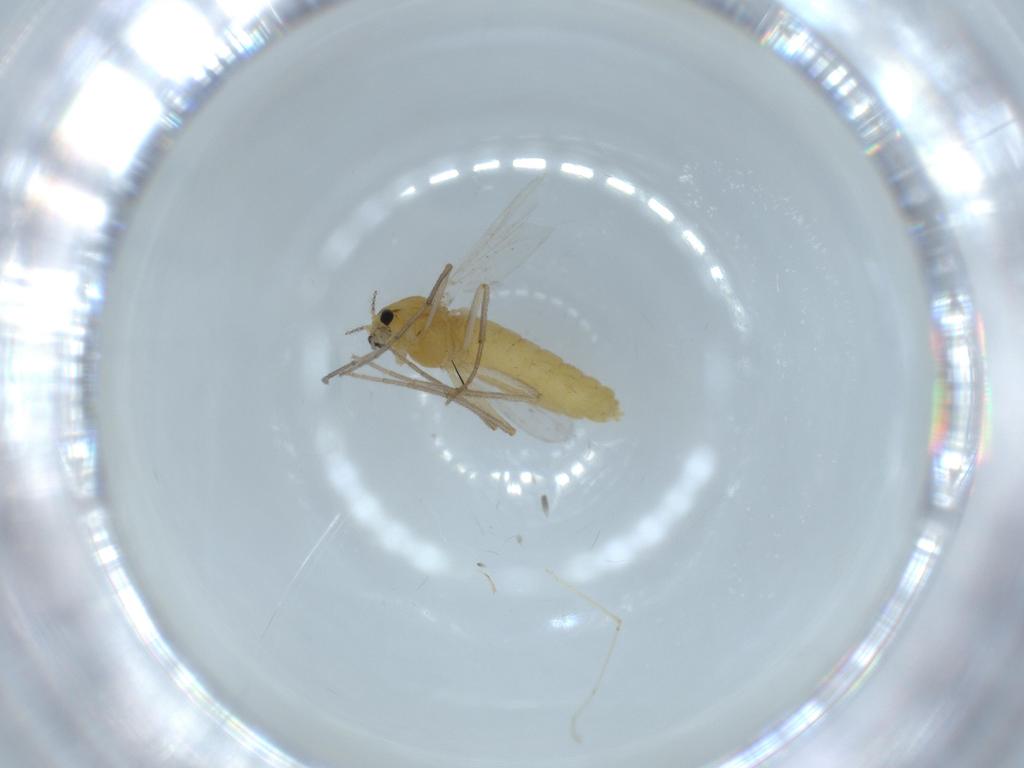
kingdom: Animalia
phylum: Arthropoda
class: Insecta
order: Diptera
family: Chironomidae
